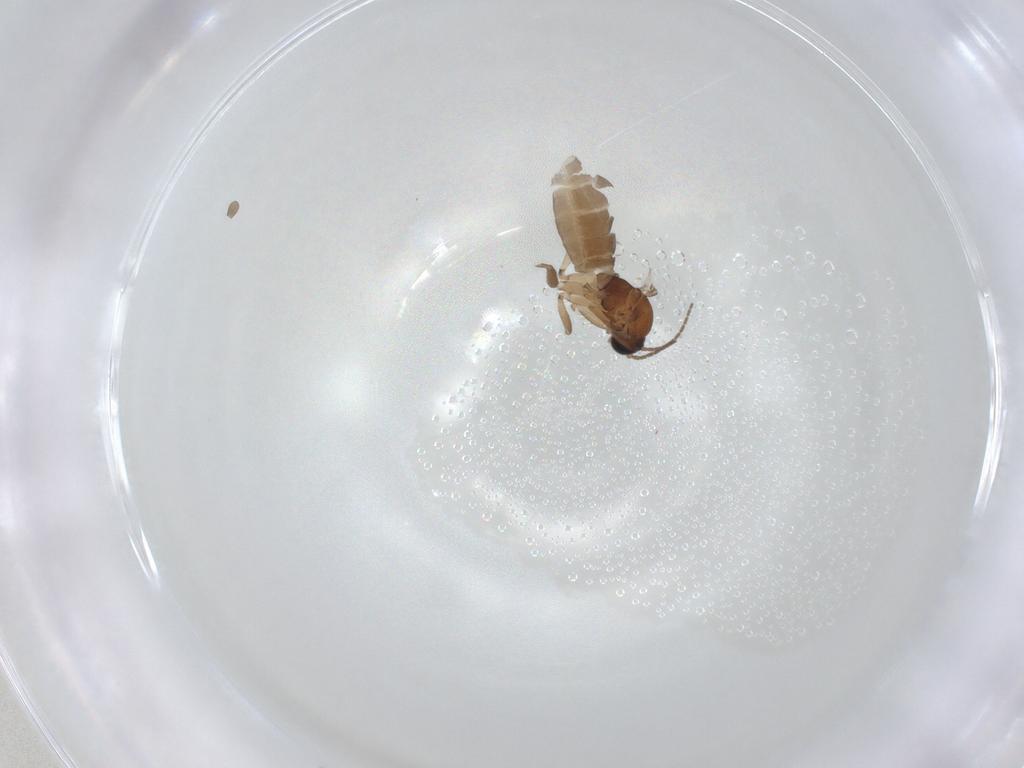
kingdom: Animalia
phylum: Arthropoda
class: Insecta
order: Diptera
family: Sciaridae
